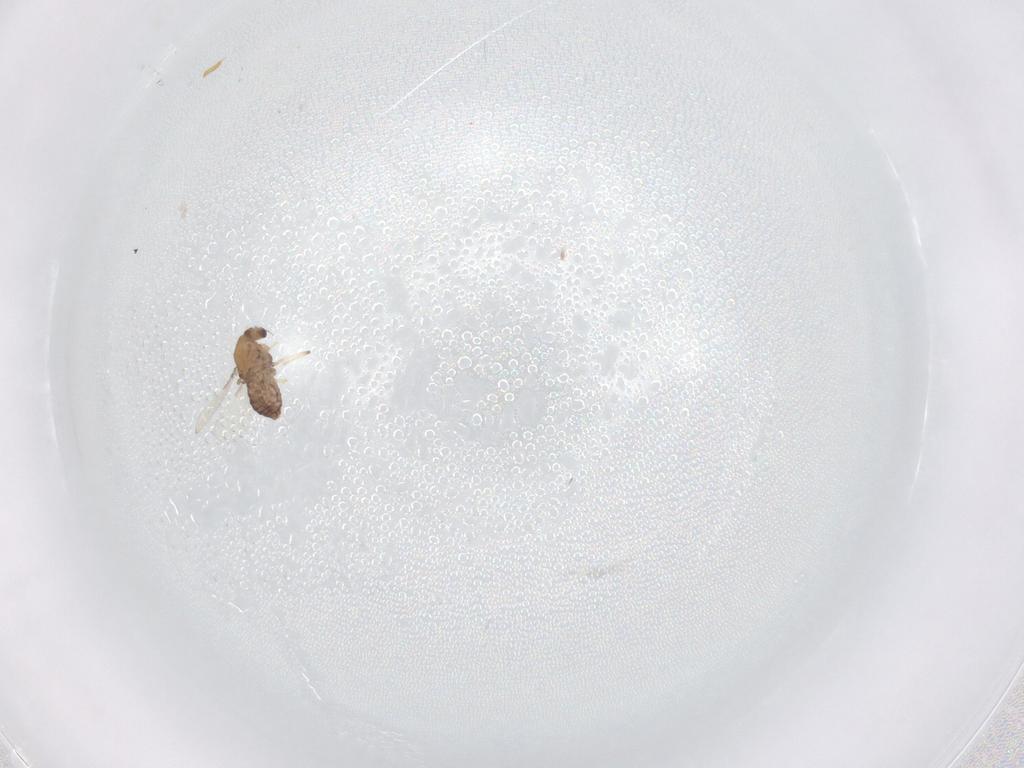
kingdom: Animalia
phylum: Arthropoda
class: Insecta
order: Diptera
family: Chironomidae
